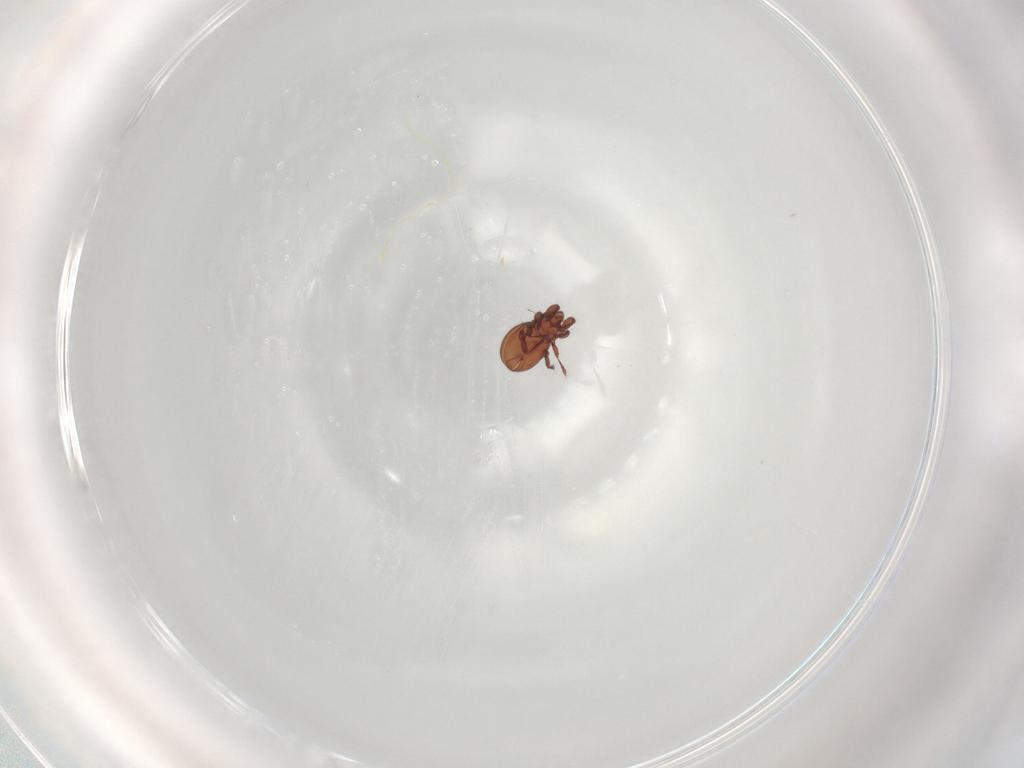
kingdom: Animalia
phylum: Arthropoda
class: Arachnida
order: Sarcoptiformes
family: Eremaeidae
